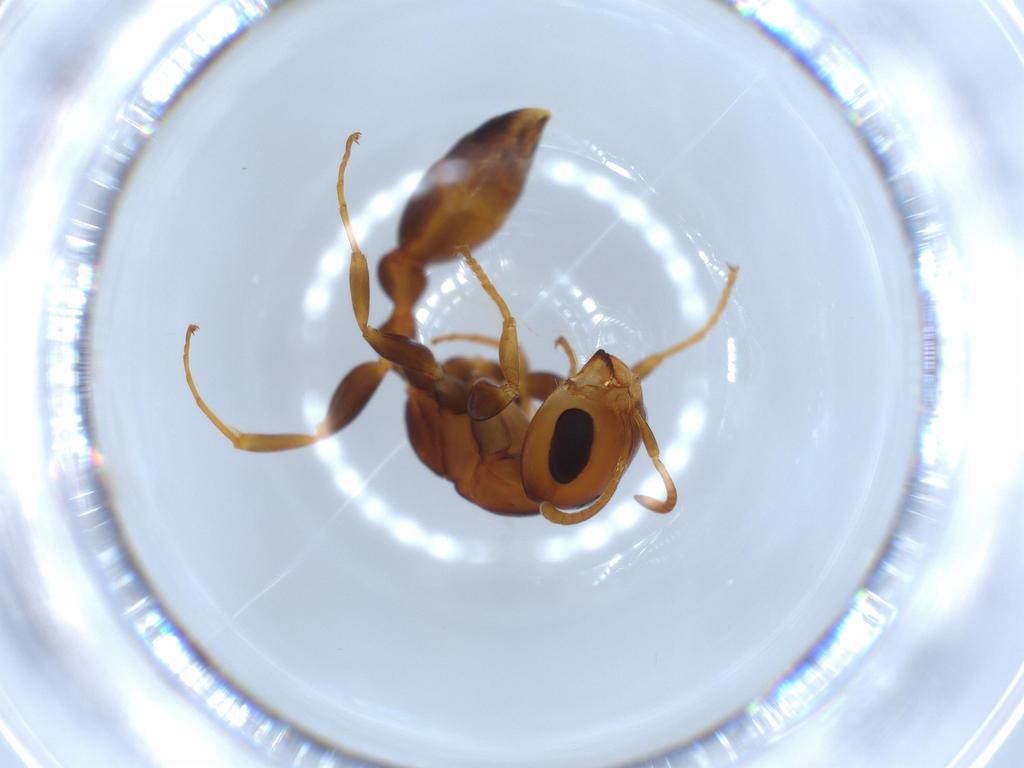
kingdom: Animalia
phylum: Arthropoda
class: Insecta
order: Hymenoptera
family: Formicidae
